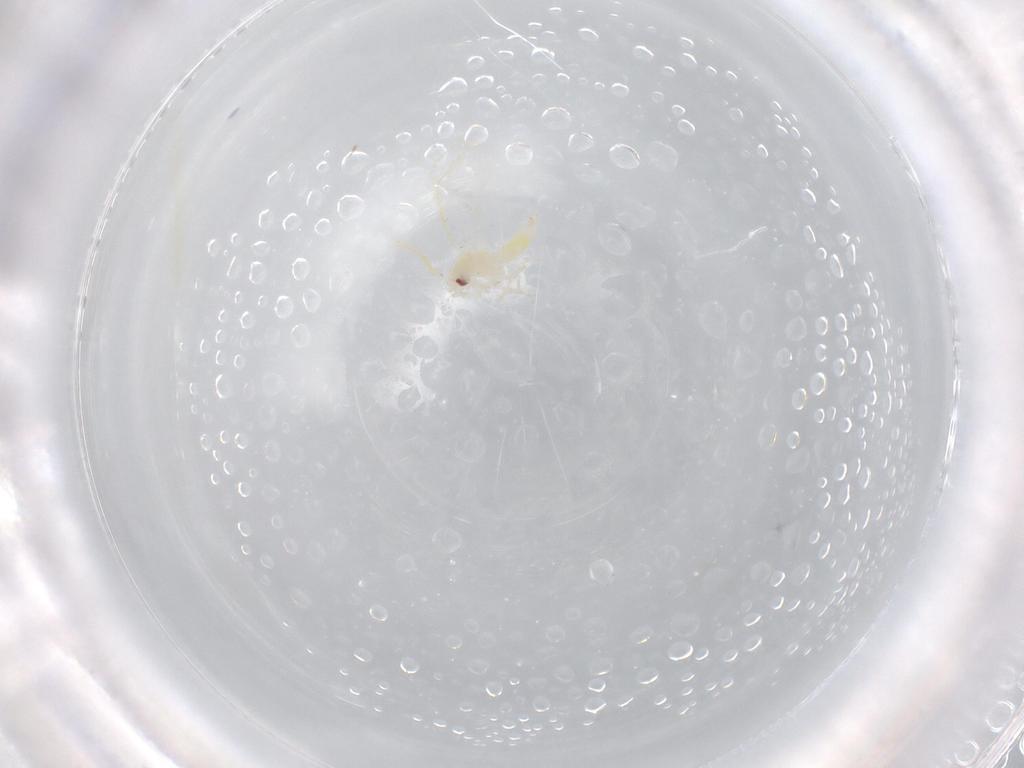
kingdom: Animalia
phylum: Arthropoda
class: Insecta
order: Hemiptera
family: Aleyrodidae
